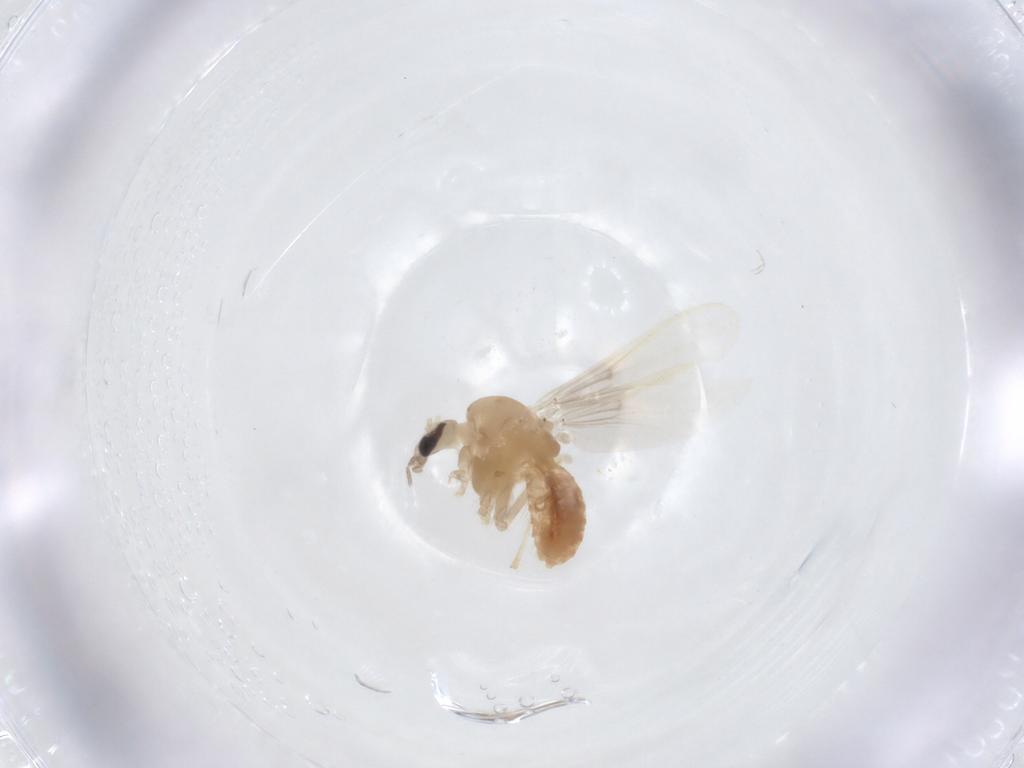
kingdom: Animalia
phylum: Arthropoda
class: Insecta
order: Diptera
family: Chironomidae
